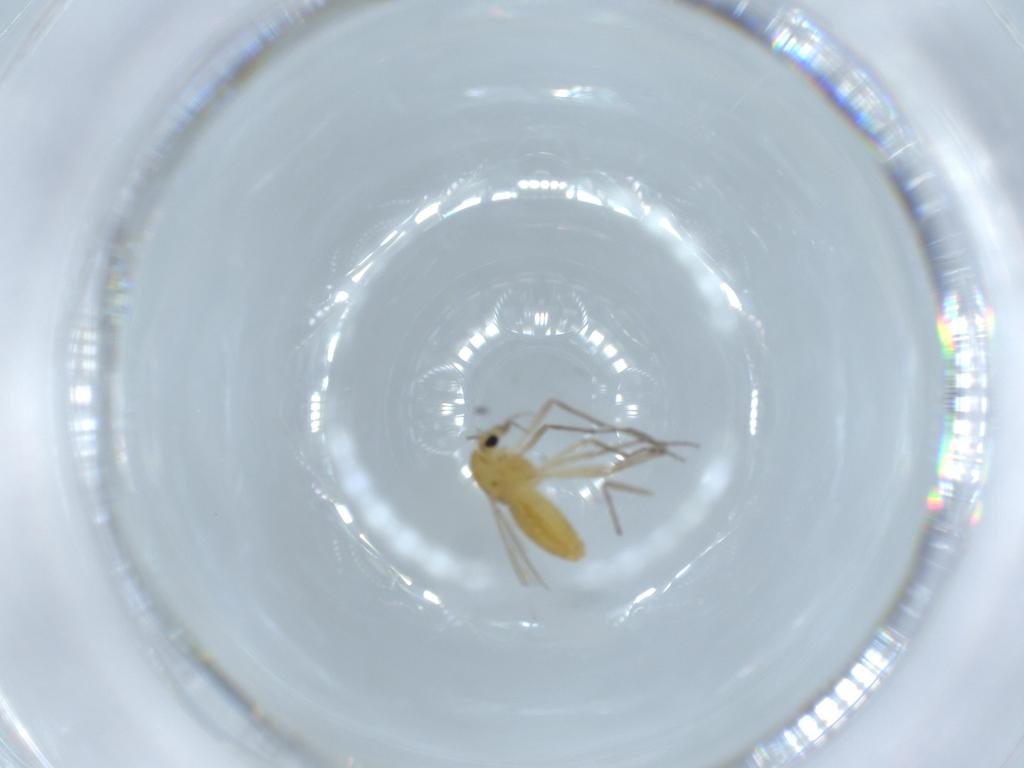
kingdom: Animalia
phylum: Arthropoda
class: Insecta
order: Diptera
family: Chironomidae
